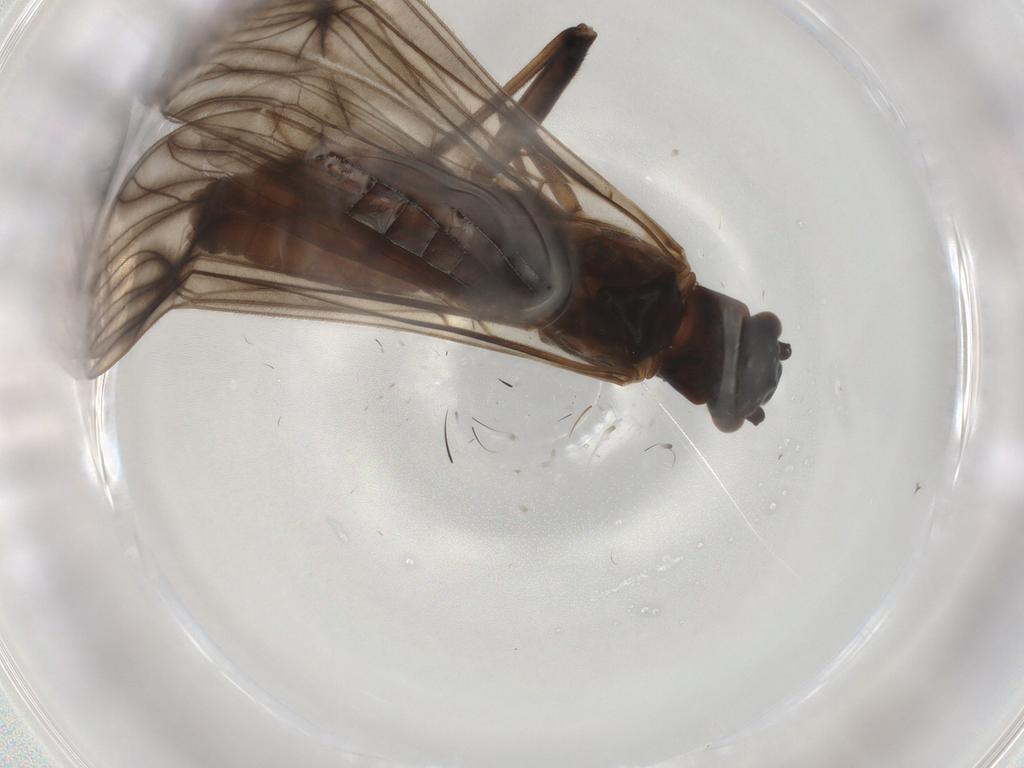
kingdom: Animalia
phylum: Arthropoda
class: Insecta
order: Plecoptera
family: Nemouridae
